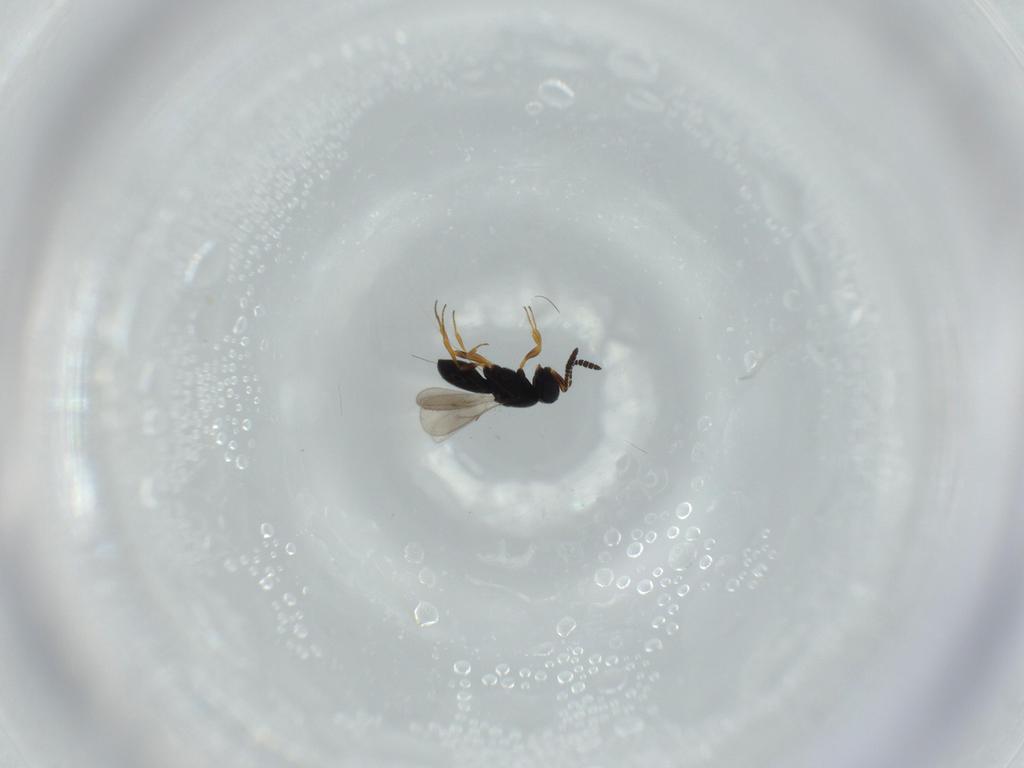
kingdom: Animalia
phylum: Arthropoda
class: Insecta
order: Hymenoptera
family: Scelionidae
